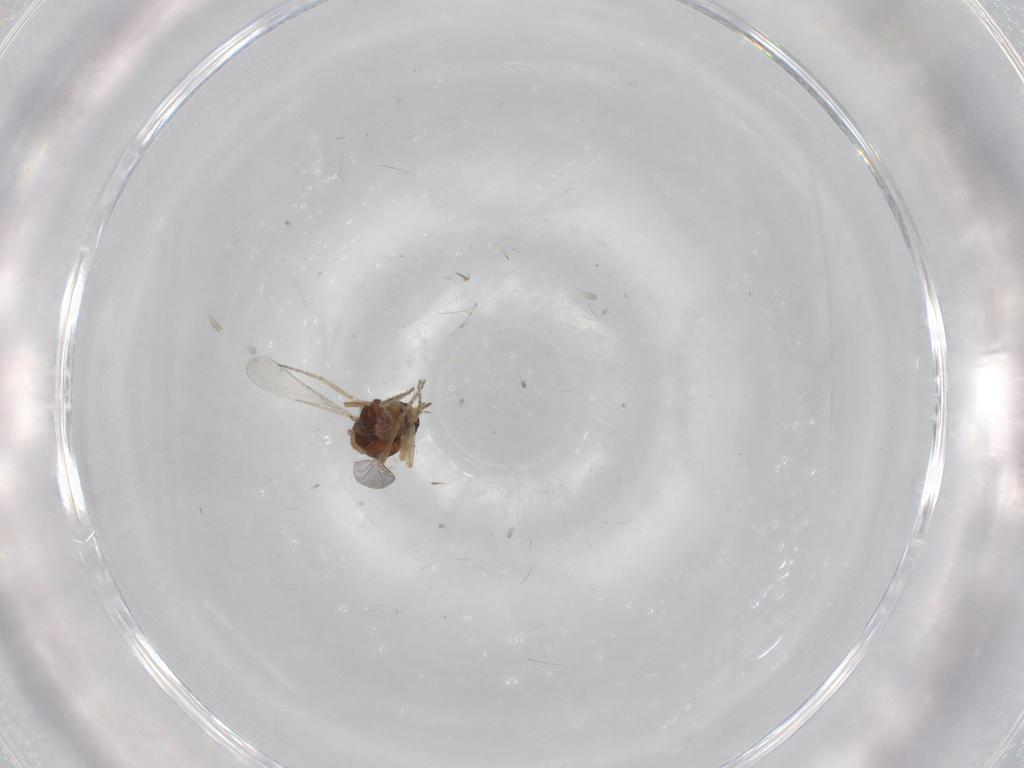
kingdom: Animalia
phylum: Arthropoda
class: Insecta
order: Diptera
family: Ceratopogonidae
